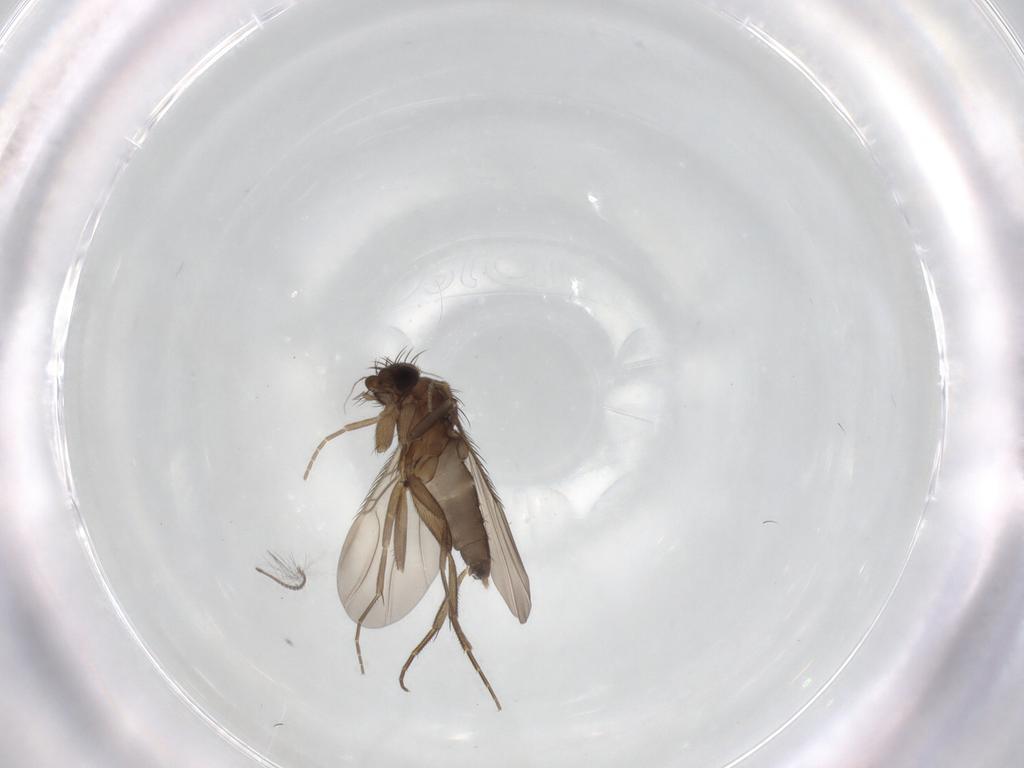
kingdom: Animalia
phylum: Arthropoda
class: Insecta
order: Diptera
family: Phoridae
